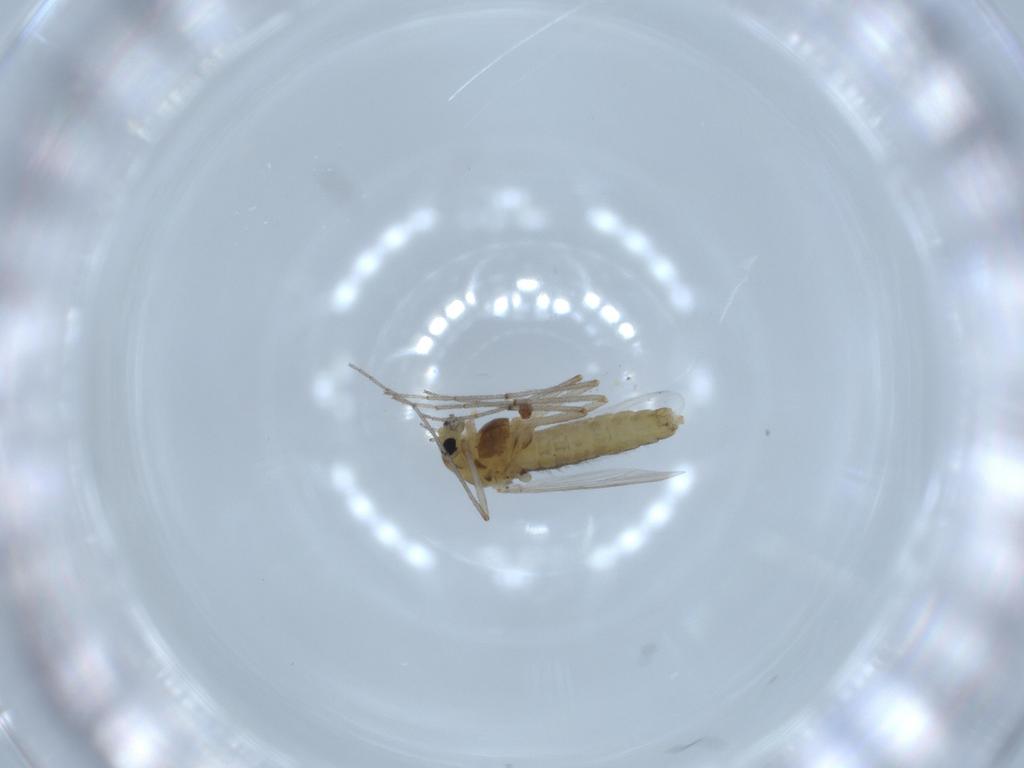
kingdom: Animalia
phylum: Arthropoda
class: Insecta
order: Diptera
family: Chironomidae
